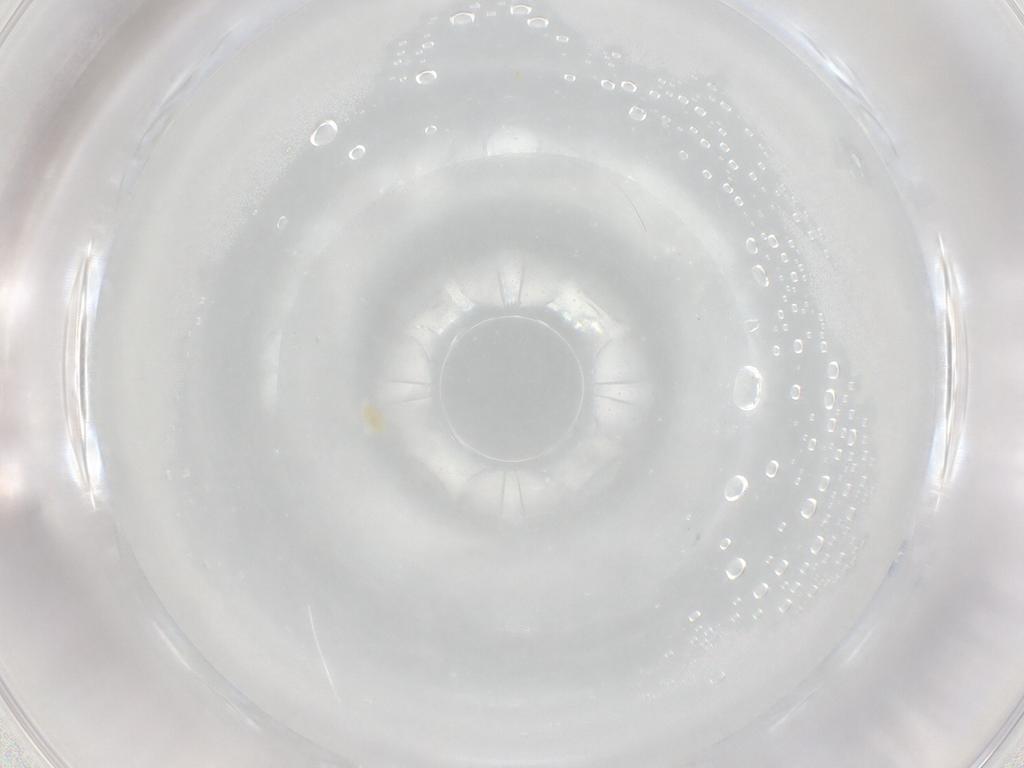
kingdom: Animalia
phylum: Arthropoda
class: Arachnida
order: Trombidiformes
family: Eupodidae
